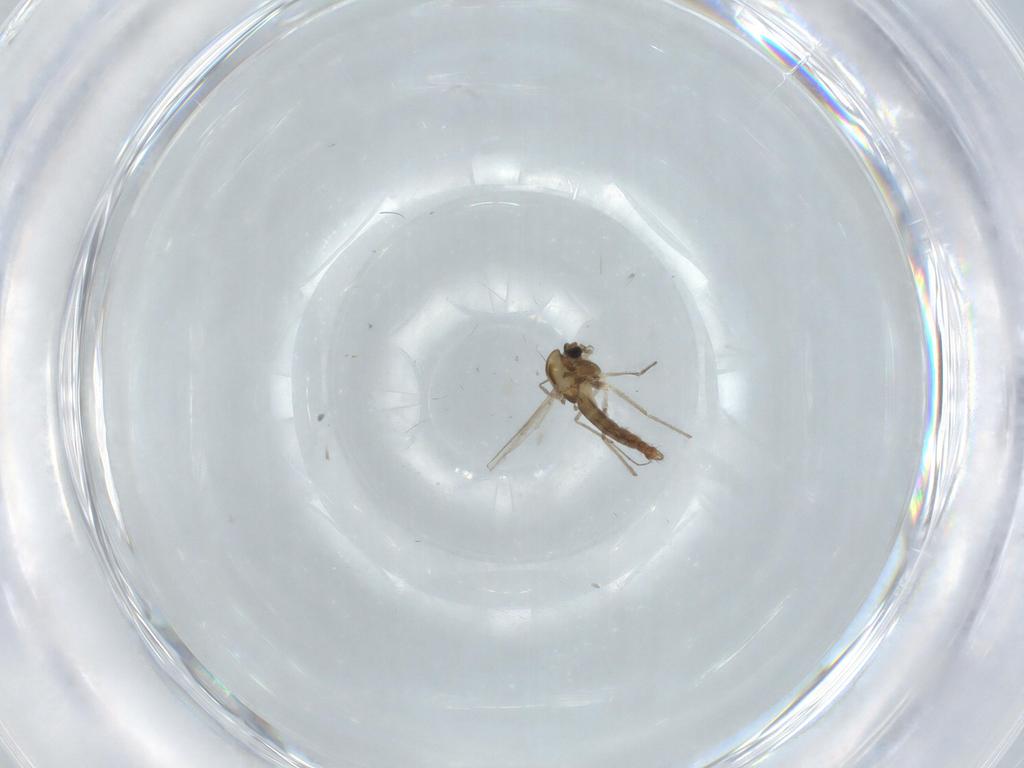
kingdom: Animalia
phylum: Arthropoda
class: Insecta
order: Diptera
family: Chironomidae
